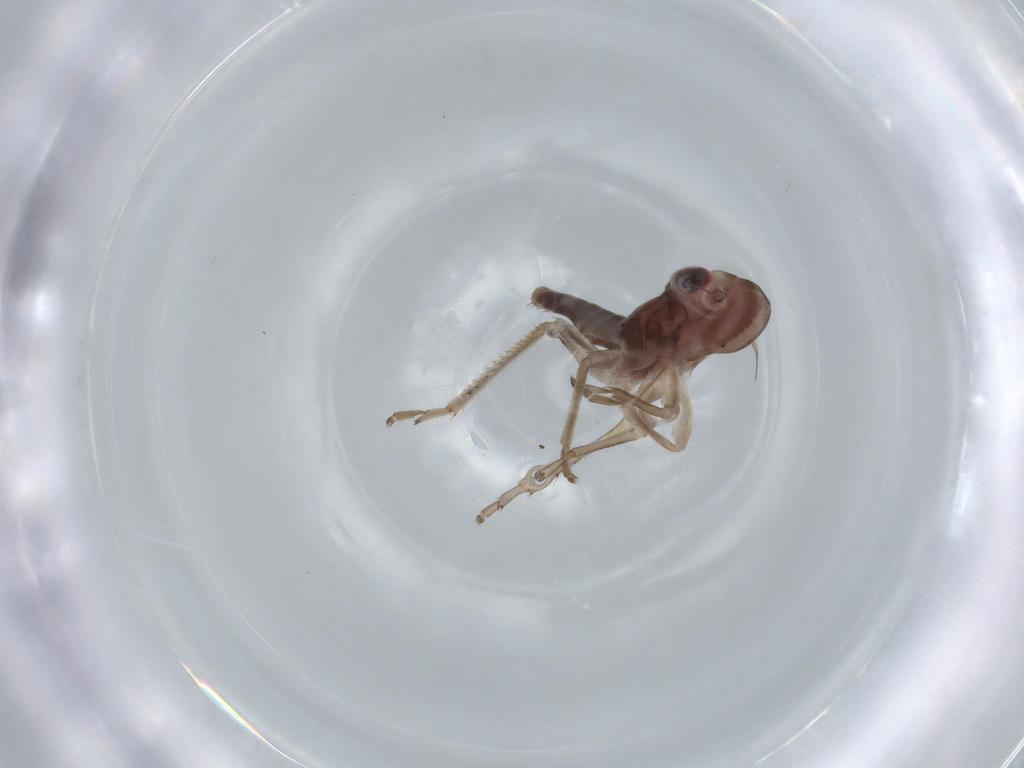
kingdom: Animalia
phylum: Arthropoda
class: Insecta
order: Hemiptera
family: Cicadellidae
